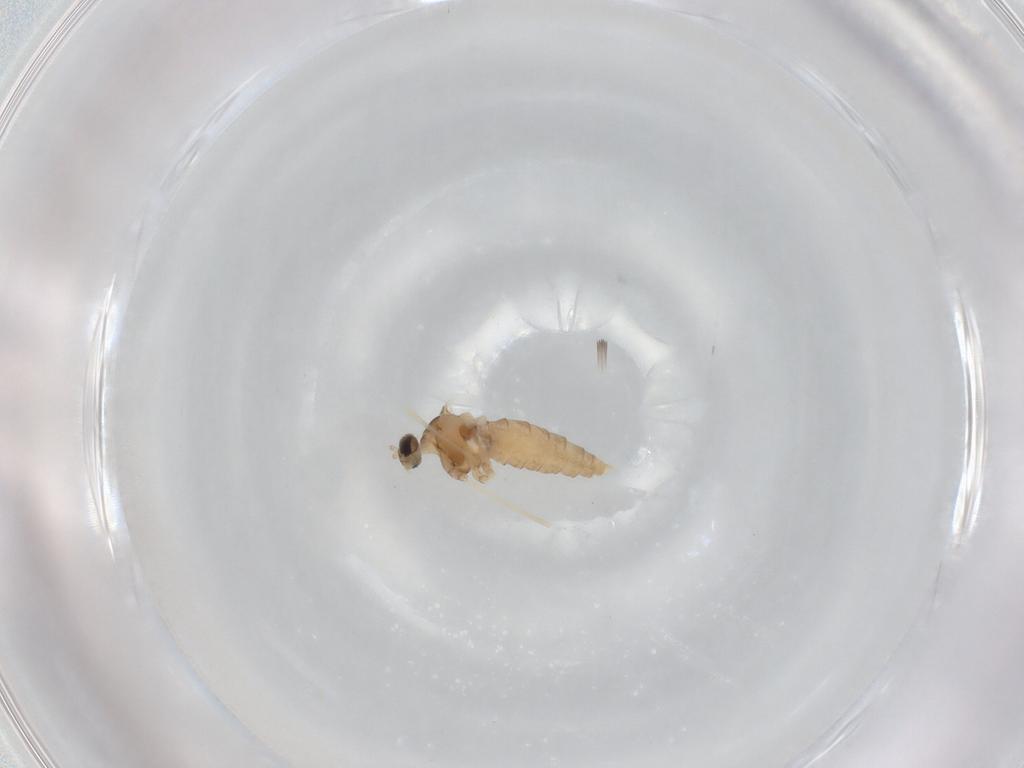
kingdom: Animalia
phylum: Arthropoda
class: Insecta
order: Diptera
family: Cecidomyiidae
